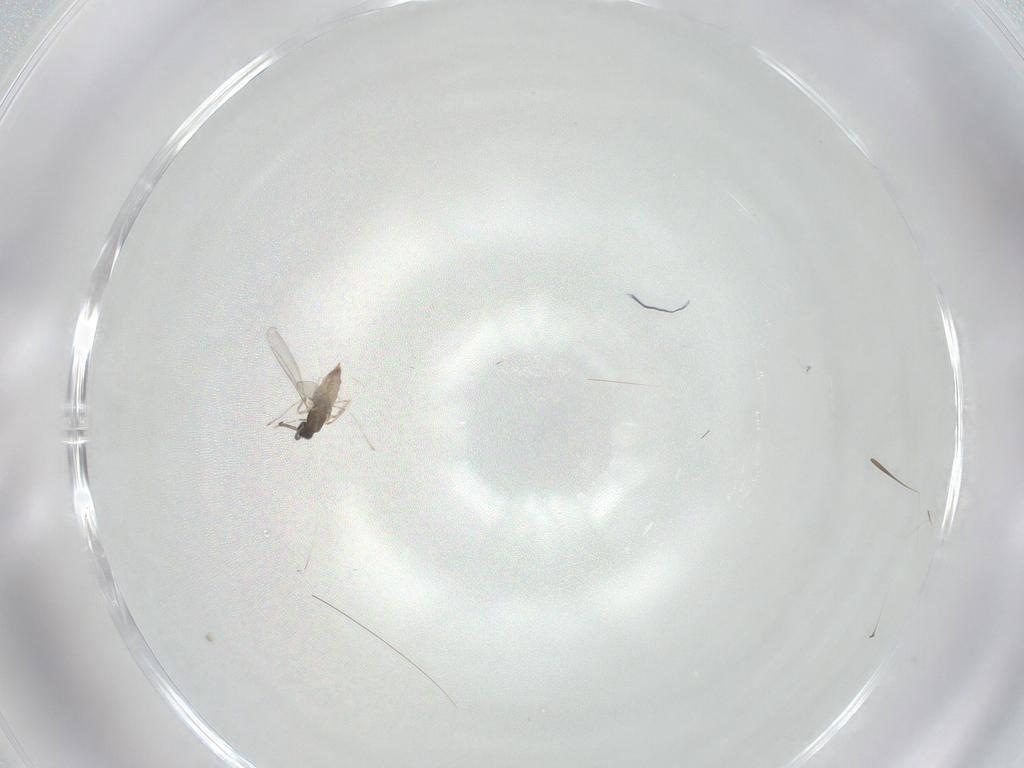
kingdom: Animalia
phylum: Arthropoda
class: Insecta
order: Diptera
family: Cecidomyiidae
